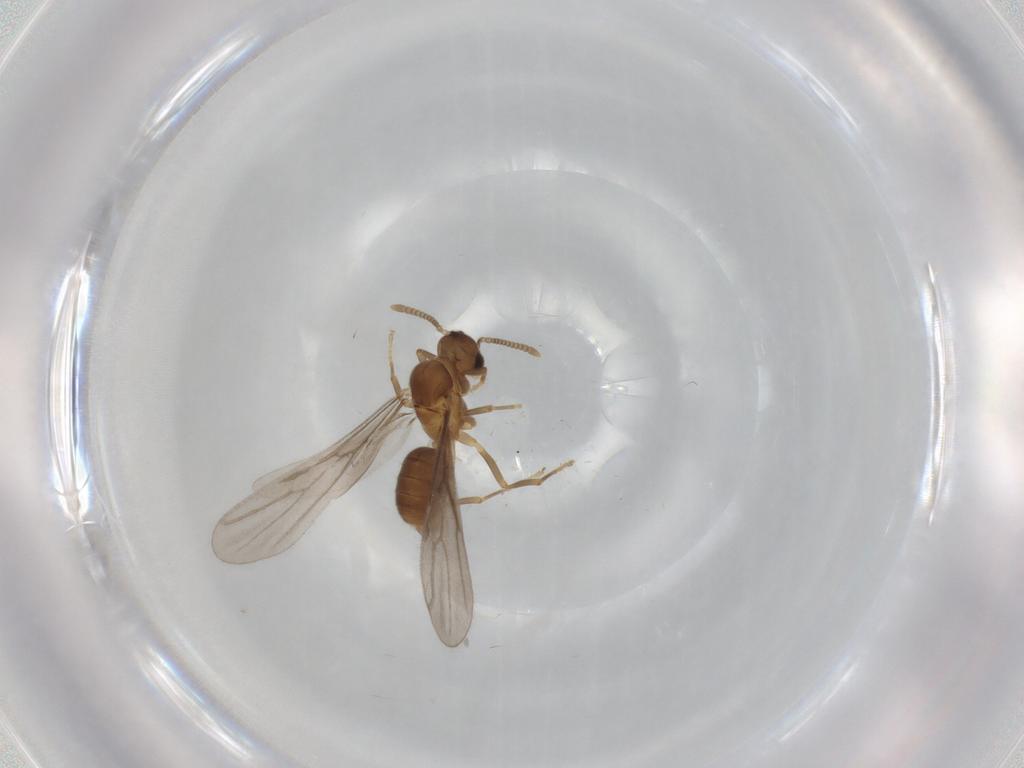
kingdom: Animalia
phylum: Arthropoda
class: Insecta
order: Hymenoptera
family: Formicidae
